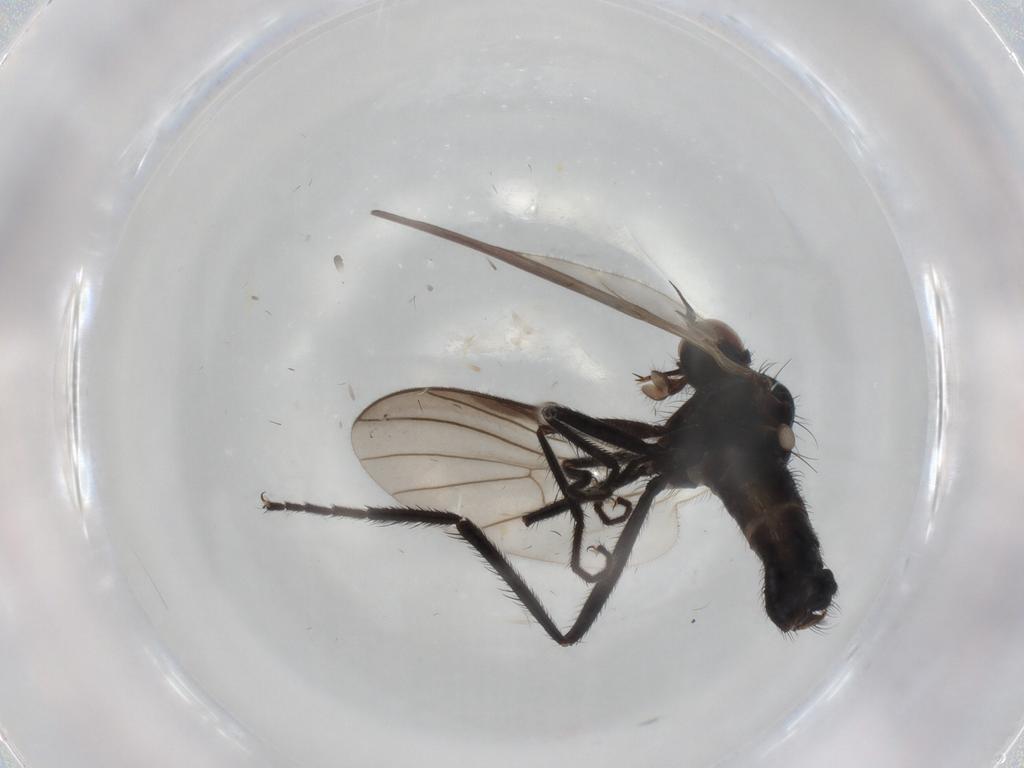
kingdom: Animalia
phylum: Arthropoda
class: Insecta
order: Diptera
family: Empididae
